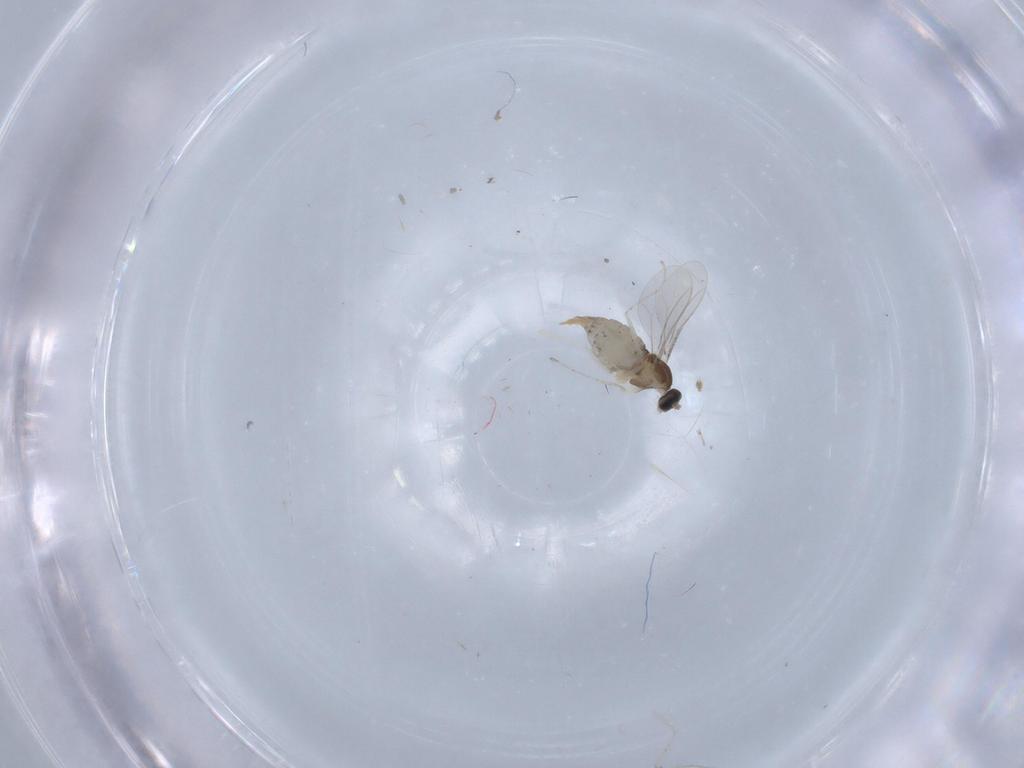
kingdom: Animalia
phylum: Arthropoda
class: Insecta
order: Diptera
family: Cecidomyiidae
